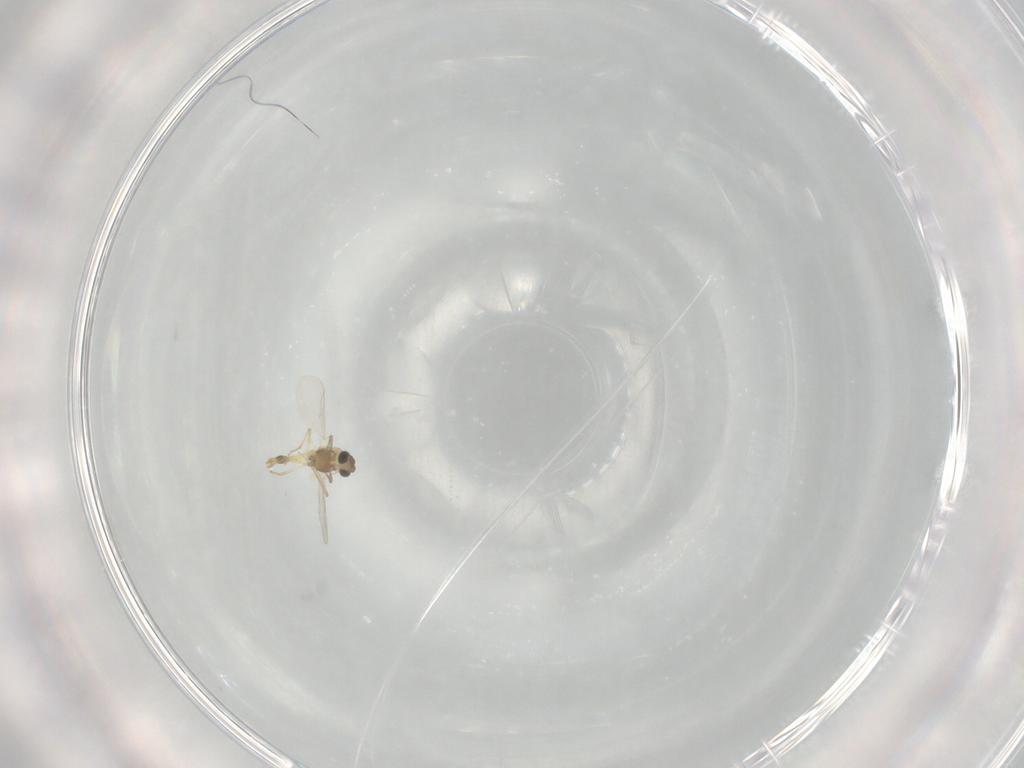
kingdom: Animalia
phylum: Arthropoda
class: Insecta
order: Diptera
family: Chironomidae
